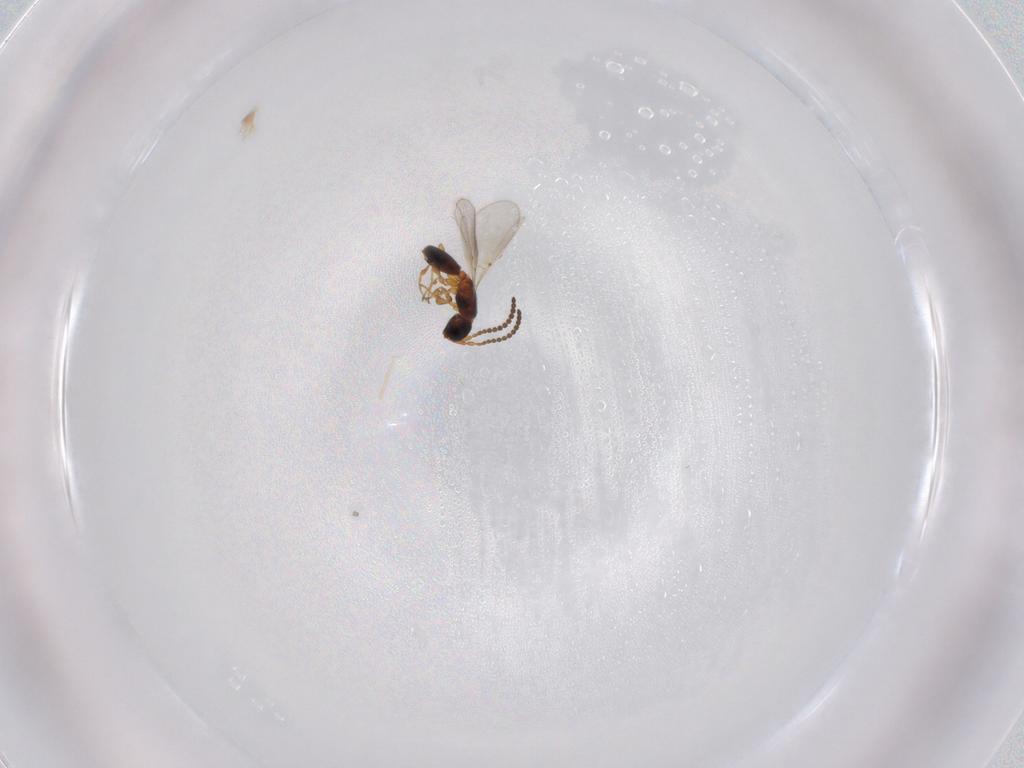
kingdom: Animalia
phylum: Arthropoda
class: Insecta
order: Hymenoptera
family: Diapriidae
